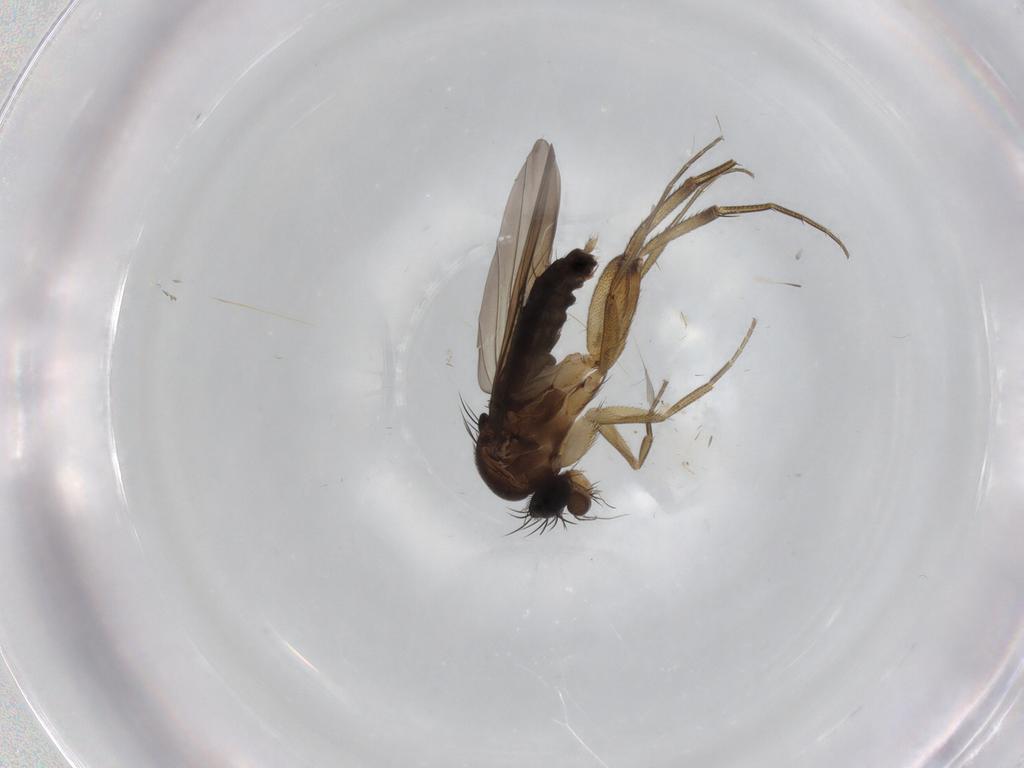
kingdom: Animalia
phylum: Arthropoda
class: Insecta
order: Diptera
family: Phoridae
